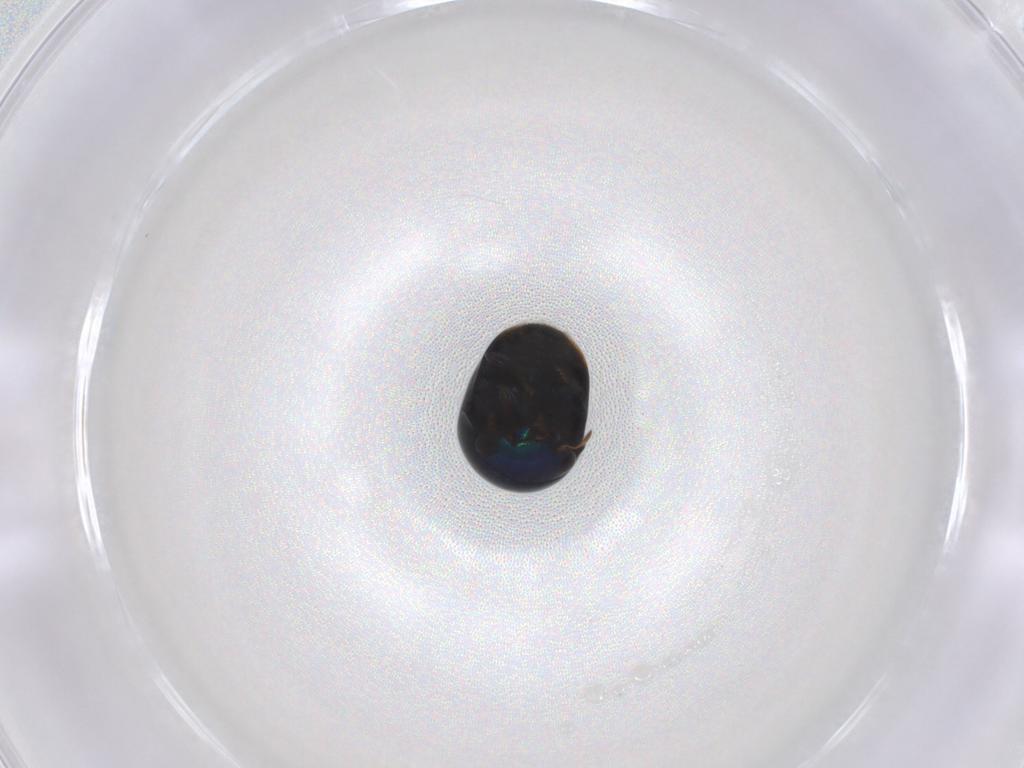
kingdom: Animalia
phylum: Arthropoda
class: Insecta
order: Coleoptera
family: Cybocephalidae
